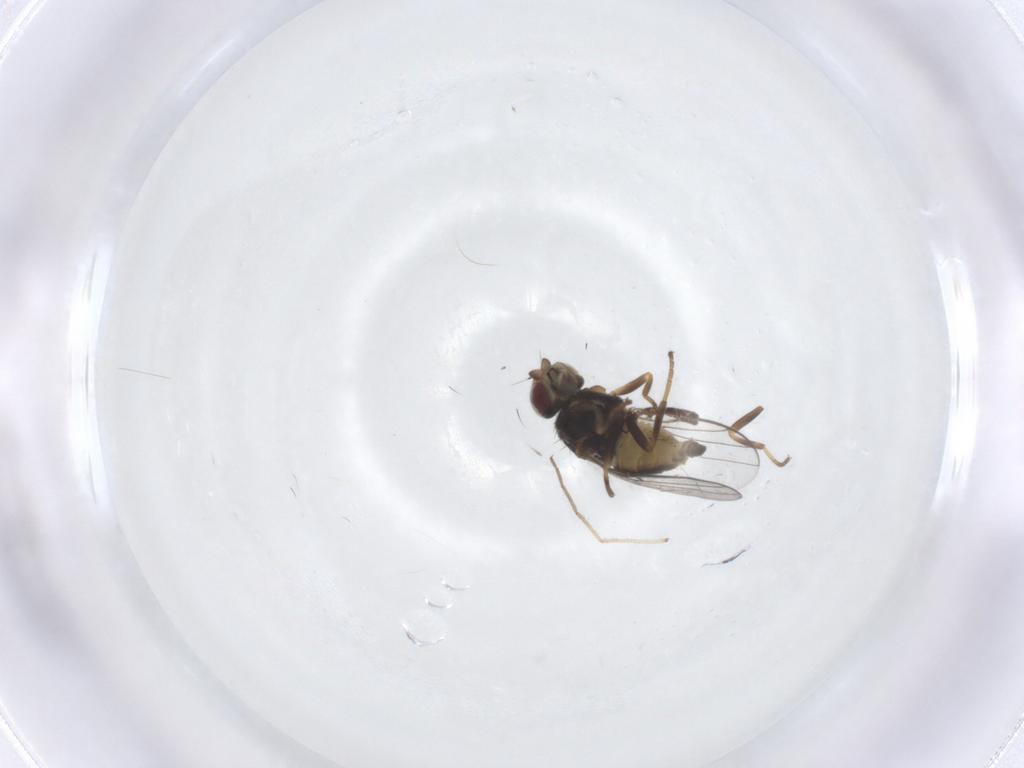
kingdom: Animalia
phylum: Arthropoda
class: Insecta
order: Diptera
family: Chloropidae
